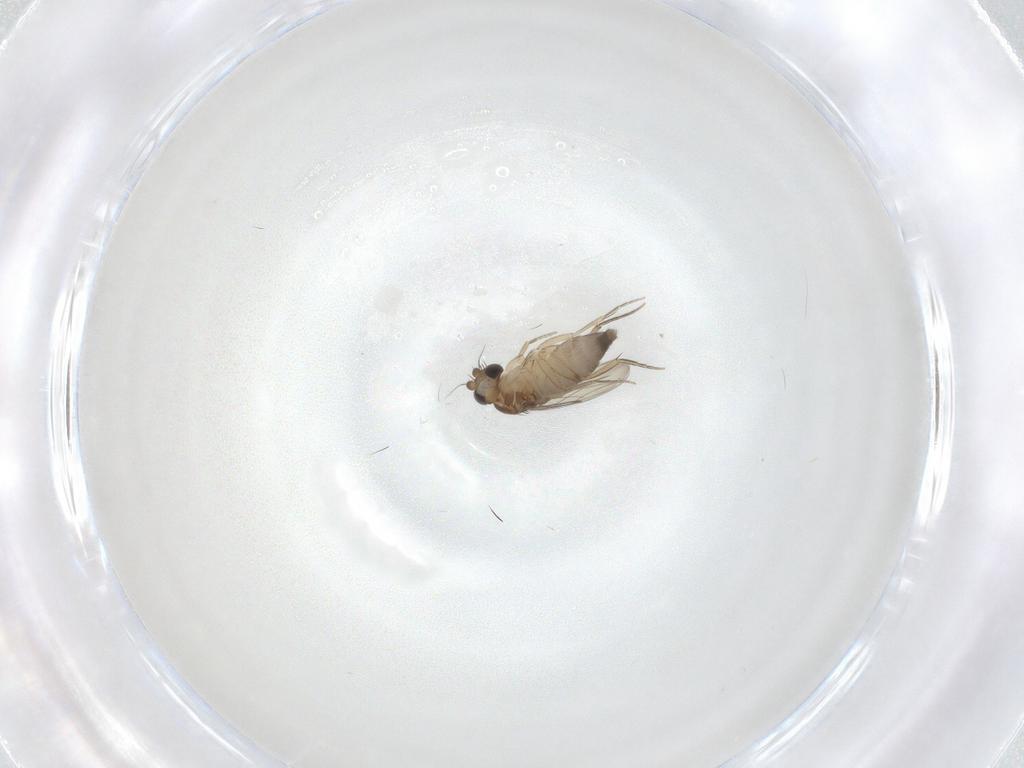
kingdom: Animalia
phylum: Arthropoda
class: Insecta
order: Diptera
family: Phoridae
